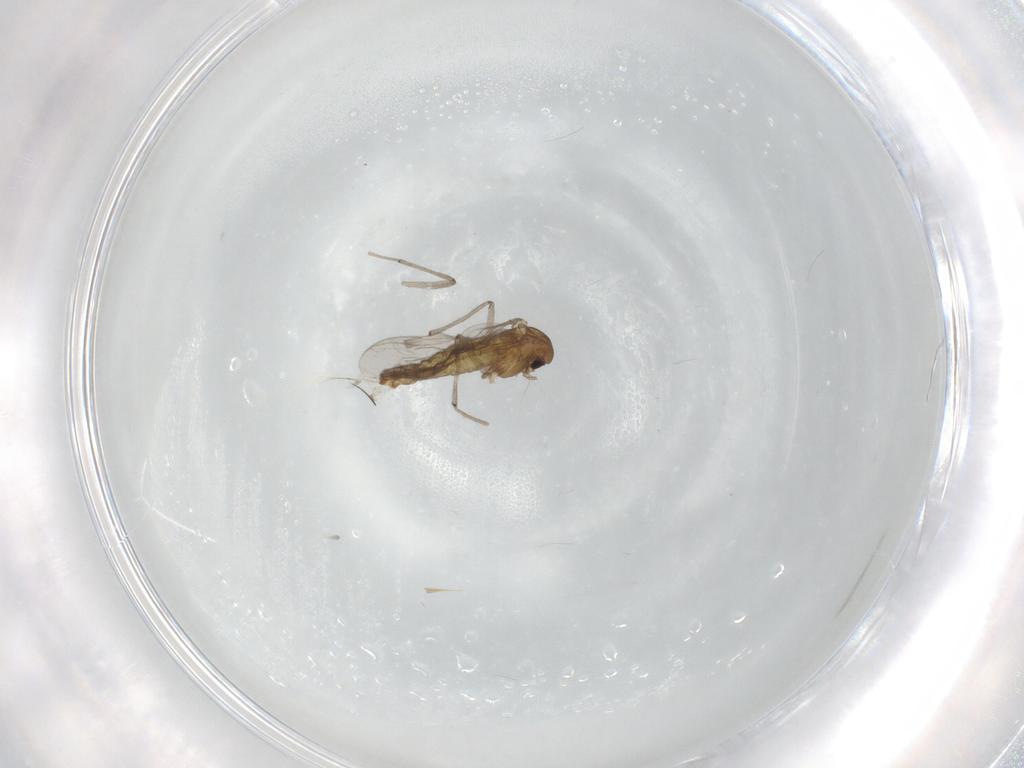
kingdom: Animalia
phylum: Arthropoda
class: Insecta
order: Diptera
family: Chironomidae
